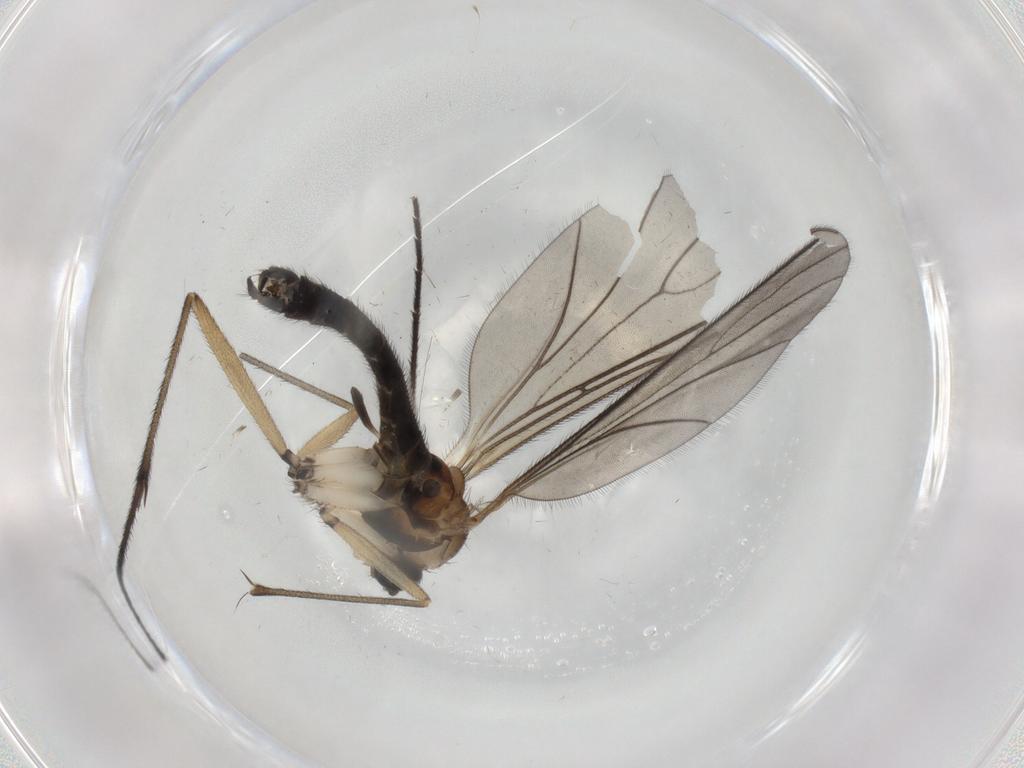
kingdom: Animalia
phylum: Arthropoda
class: Insecta
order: Diptera
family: Sciaridae
